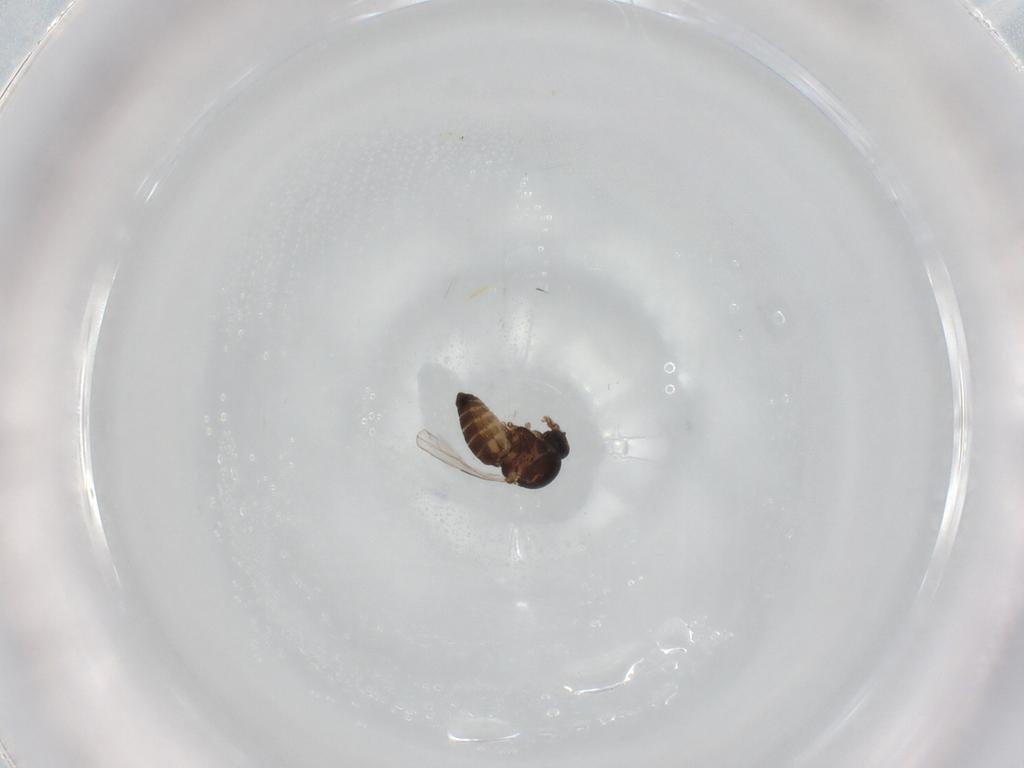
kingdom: Animalia
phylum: Arthropoda
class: Insecta
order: Diptera
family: Ceratopogonidae
